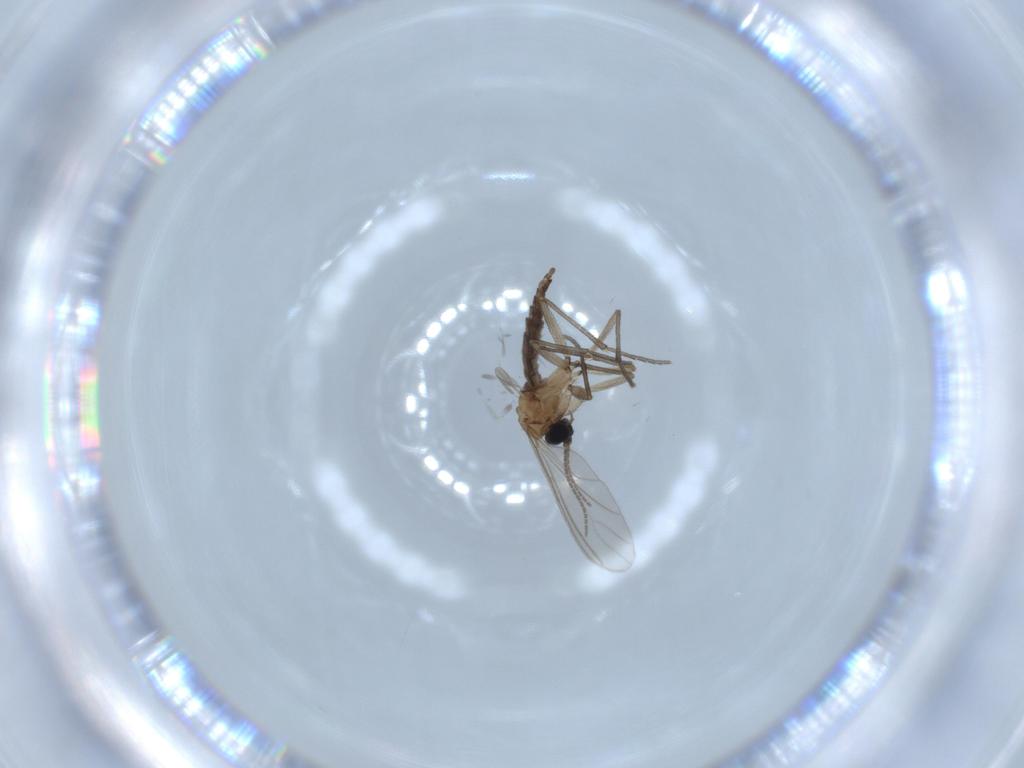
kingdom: Animalia
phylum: Arthropoda
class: Insecta
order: Diptera
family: Sciaridae
